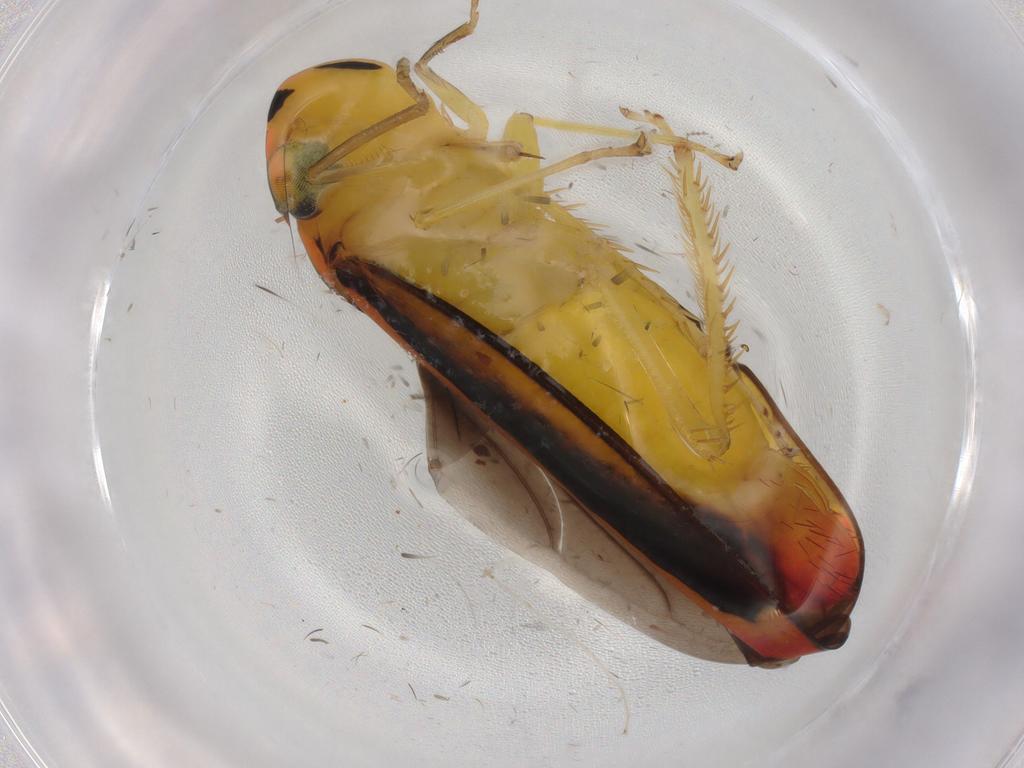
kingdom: Animalia
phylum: Arthropoda
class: Insecta
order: Hemiptera
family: Cicadellidae
